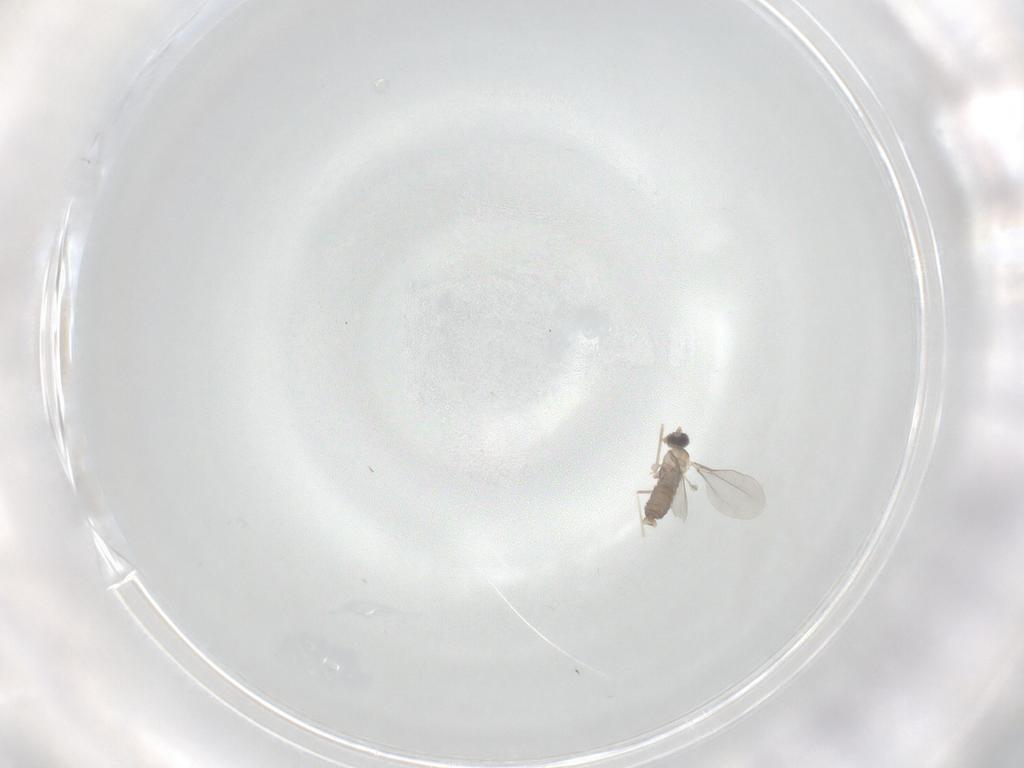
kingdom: Animalia
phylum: Arthropoda
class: Insecta
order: Diptera
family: Cecidomyiidae
